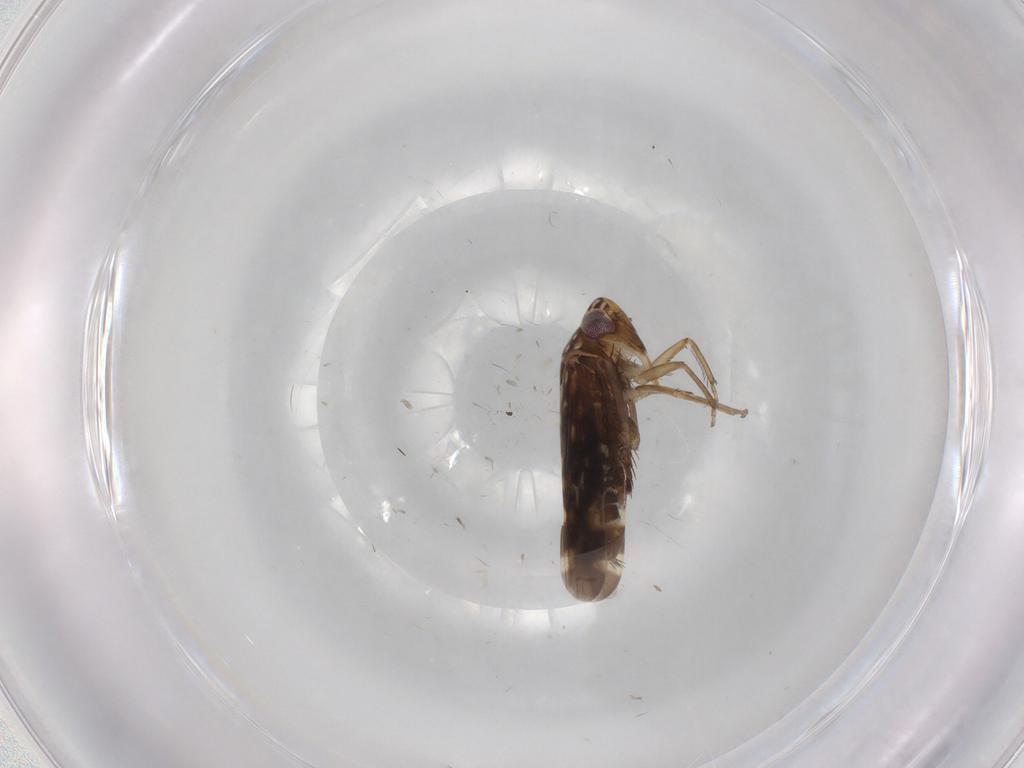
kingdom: Animalia
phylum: Arthropoda
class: Insecta
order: Hemiptera
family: Cicadellidae
